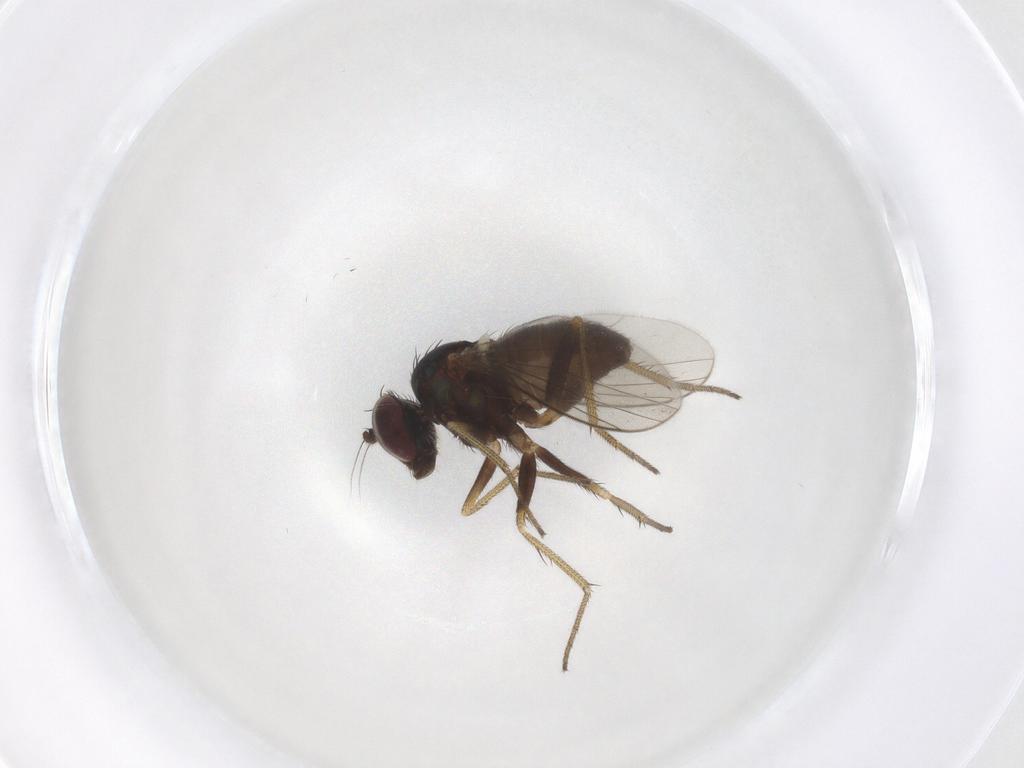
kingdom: Animalia
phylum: Arthropoda
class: Insecta
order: Diptera
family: Dolichopodidae
